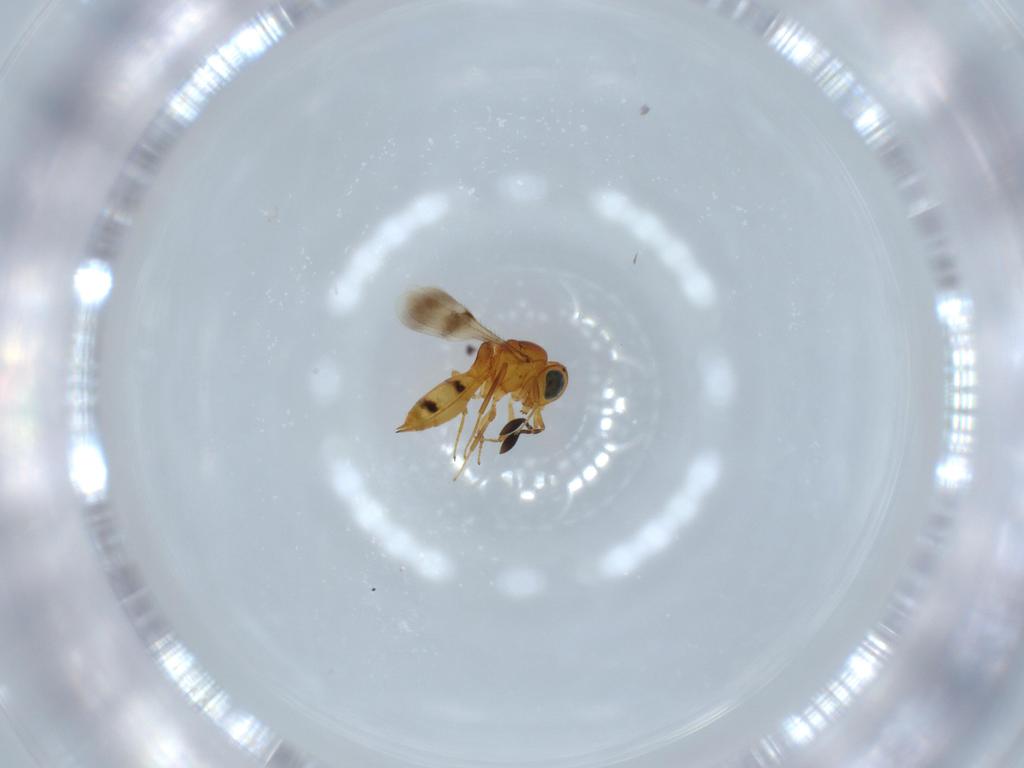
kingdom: Animalia
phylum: Arthropoda
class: Insecta
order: Hymenoptera
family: Scelionidae
